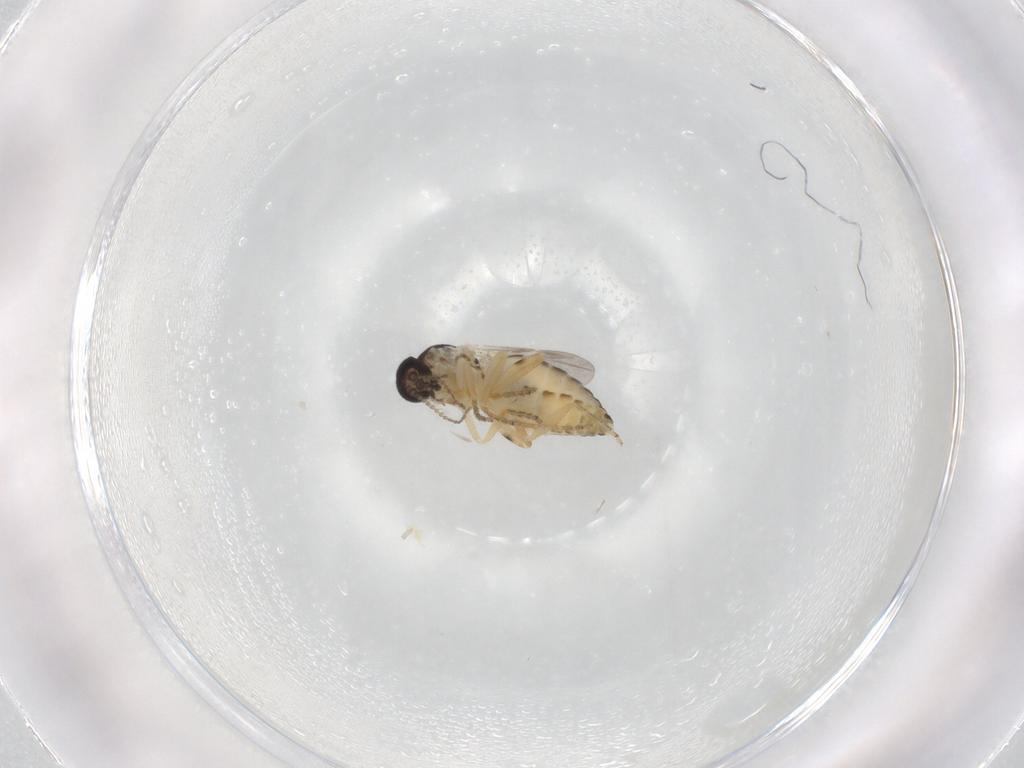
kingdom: Animalia
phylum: Arthropoda
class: Insecta
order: Diptera
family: Ceratopogonidae
